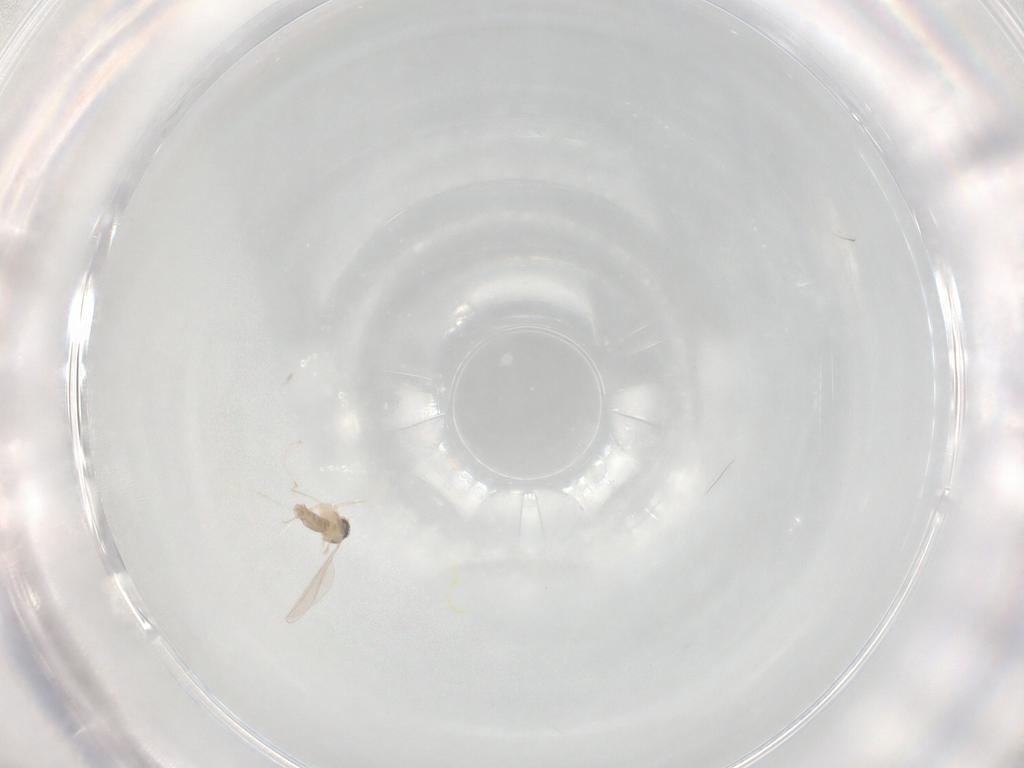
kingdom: Animalia
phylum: Arthropoda
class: Insecta
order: Diptera
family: Cecidomyiidae
